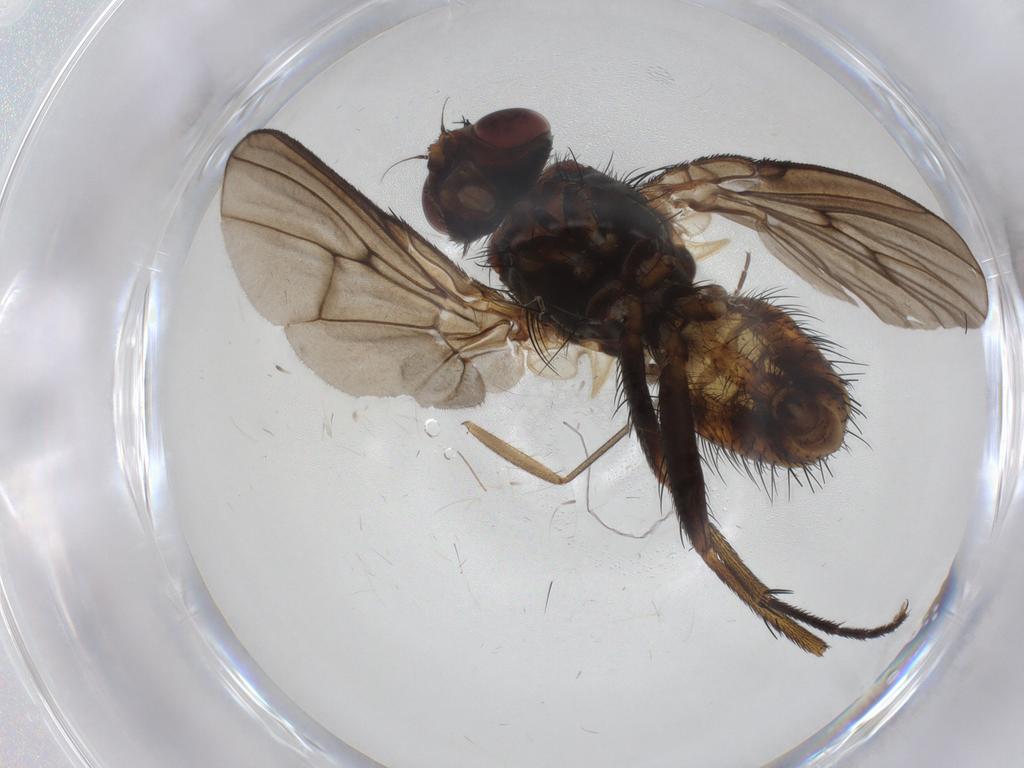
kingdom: Animalia
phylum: Arthropoda
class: Insecta
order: Diptera
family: Muscidae
